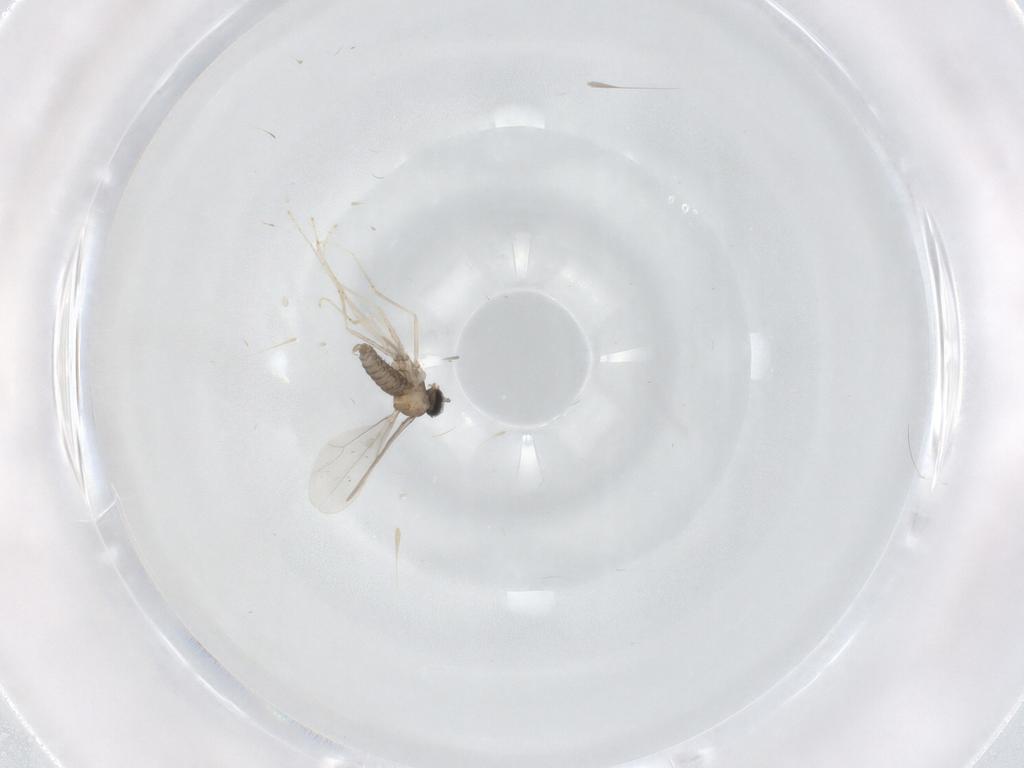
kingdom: Animalia
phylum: Arthropoda
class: Insecta
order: Diptera
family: Cecidomyiidae
